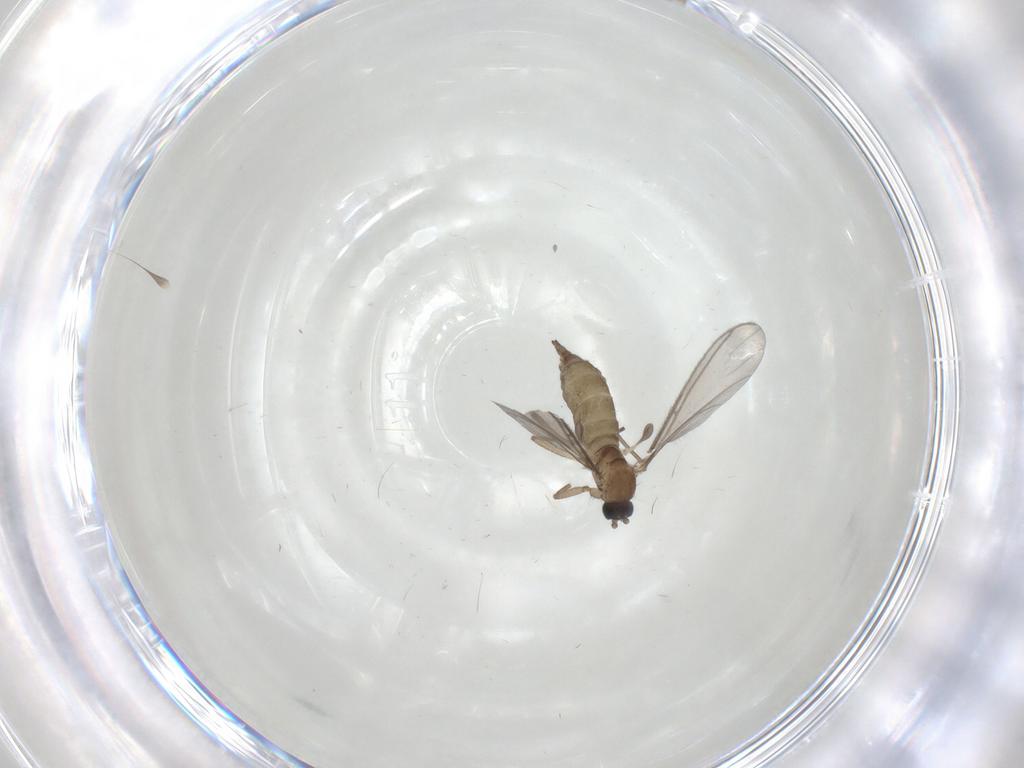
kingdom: Animalia
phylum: Arthropoda
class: Insecta
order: Diptera
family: Sciaridae
